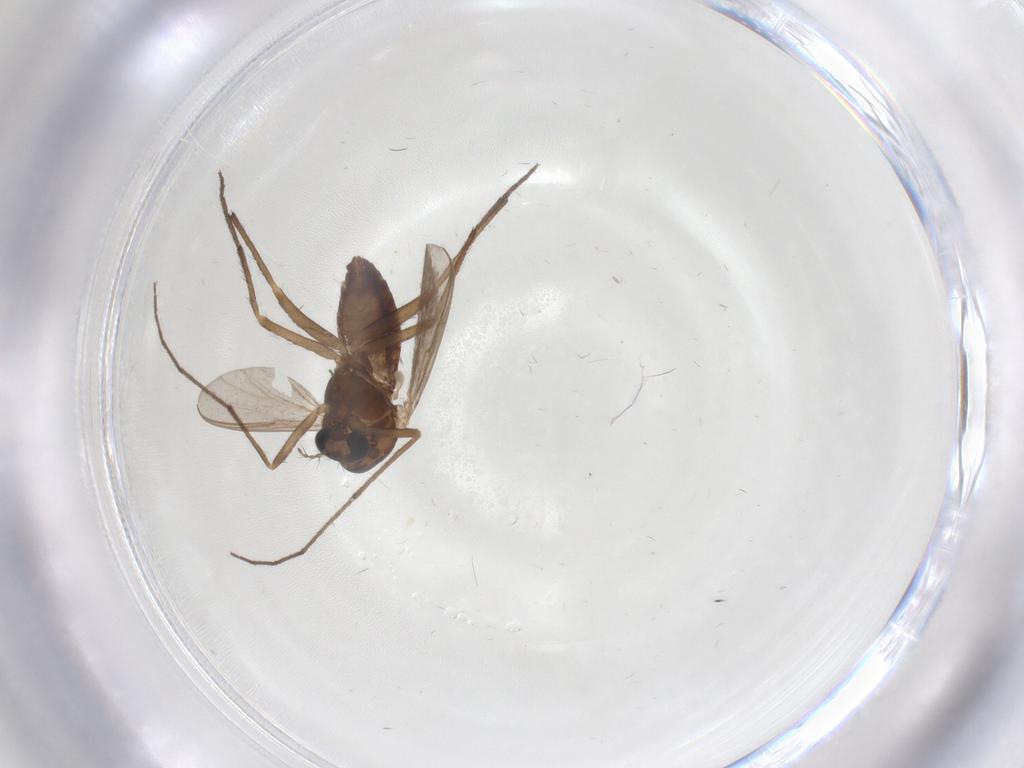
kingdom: Animalia
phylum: Arthropoda
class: Insecta
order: Diptera
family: Chironomidae
